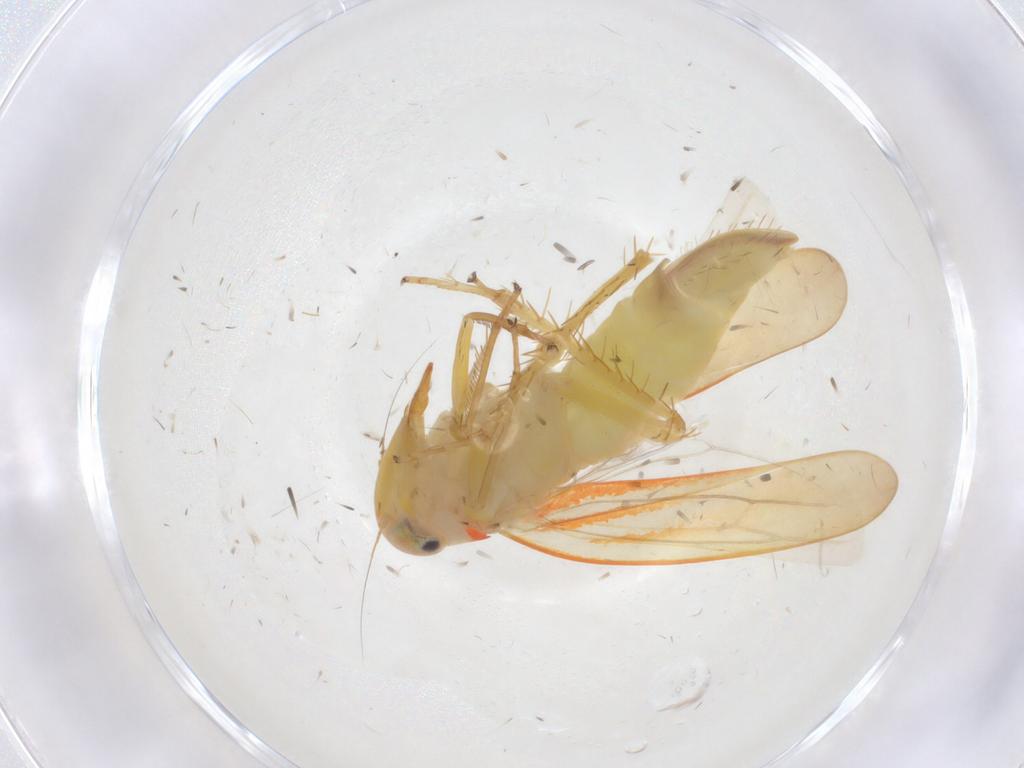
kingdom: Animalia
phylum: Arthropoda
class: Insecta
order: Hemiptera
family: Cicadellidae
